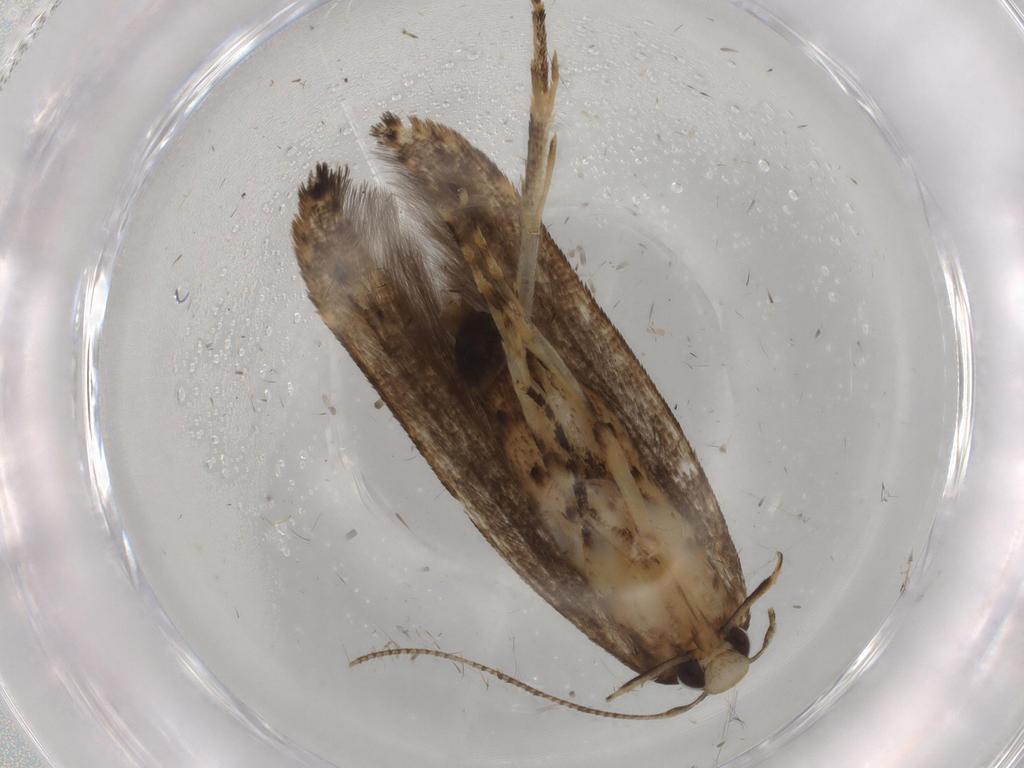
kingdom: Animalia
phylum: Arthropoda
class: Insecta
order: Lepidoptera
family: Cosmopterigidae
